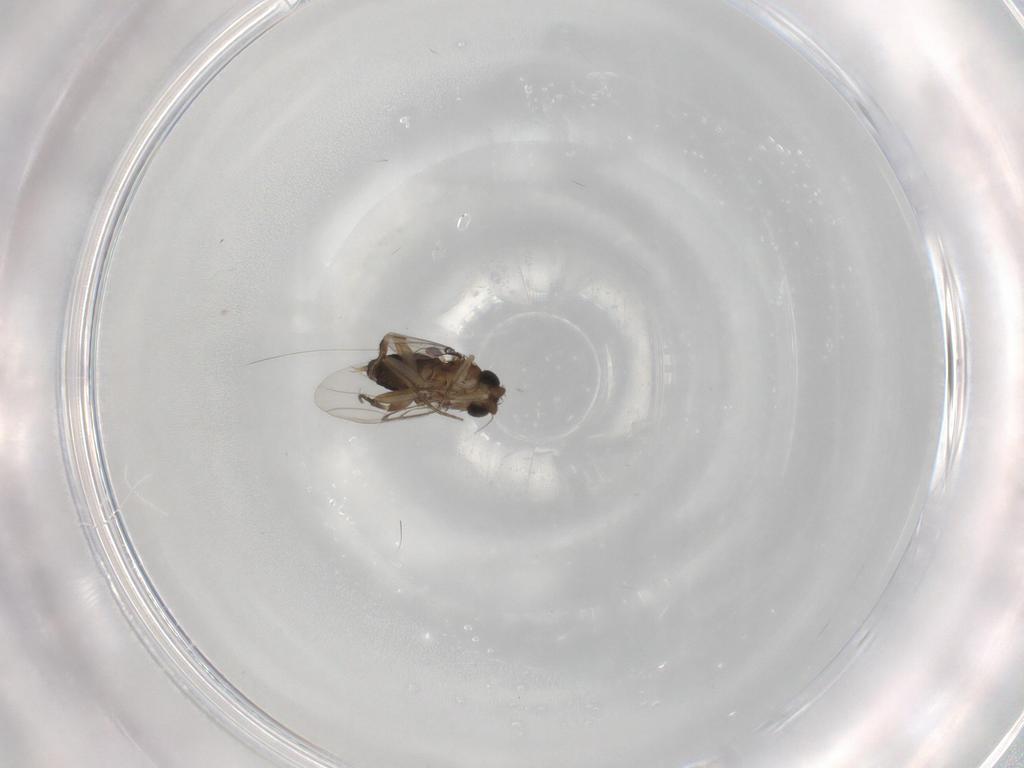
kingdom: Animalia
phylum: Arthropoda
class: Insecta
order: Diptera
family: Phoridae
